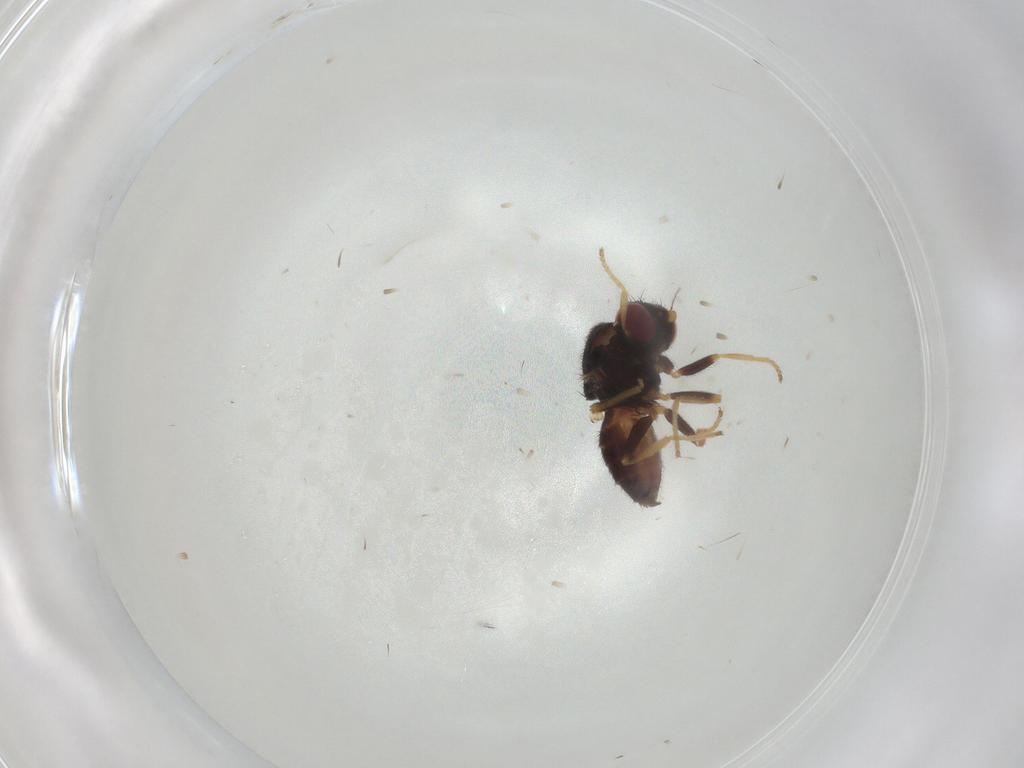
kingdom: Animalia
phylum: Arthropoda
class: Insecta
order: Diptera
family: Chloropidae
